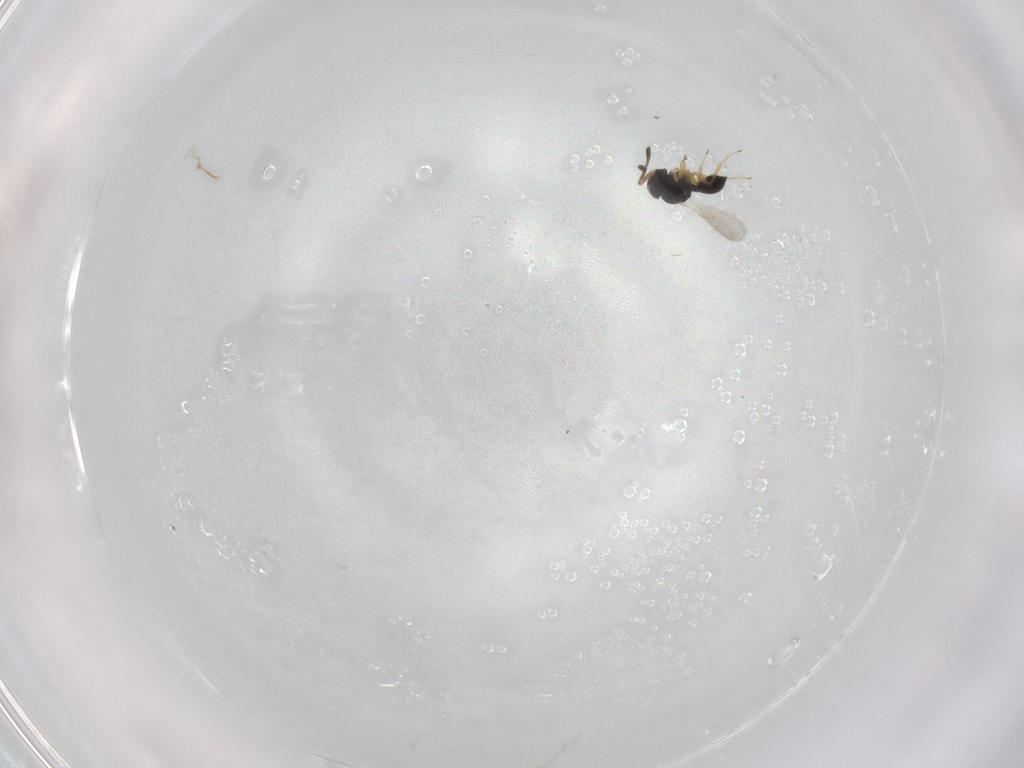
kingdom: Animalia
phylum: Arthropoda
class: Insecta
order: Hymenoptera
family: Scelionidae
